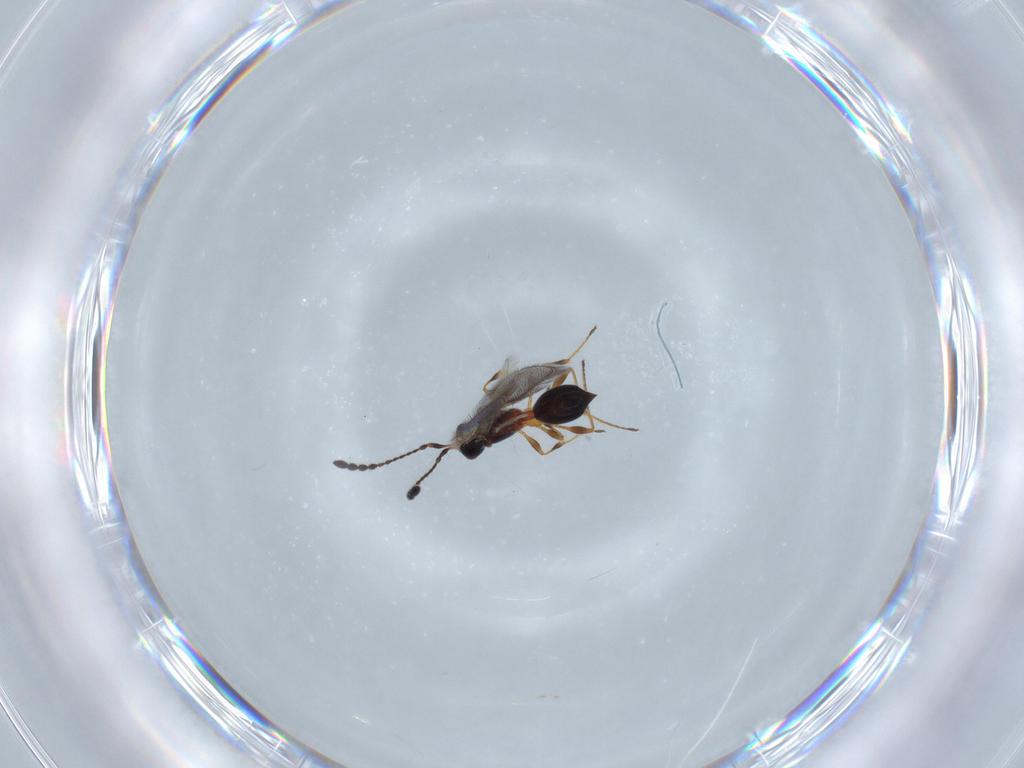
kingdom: Animalia
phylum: Arthropoda
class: Insecta
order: Hymenoptera
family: Diapriidae
